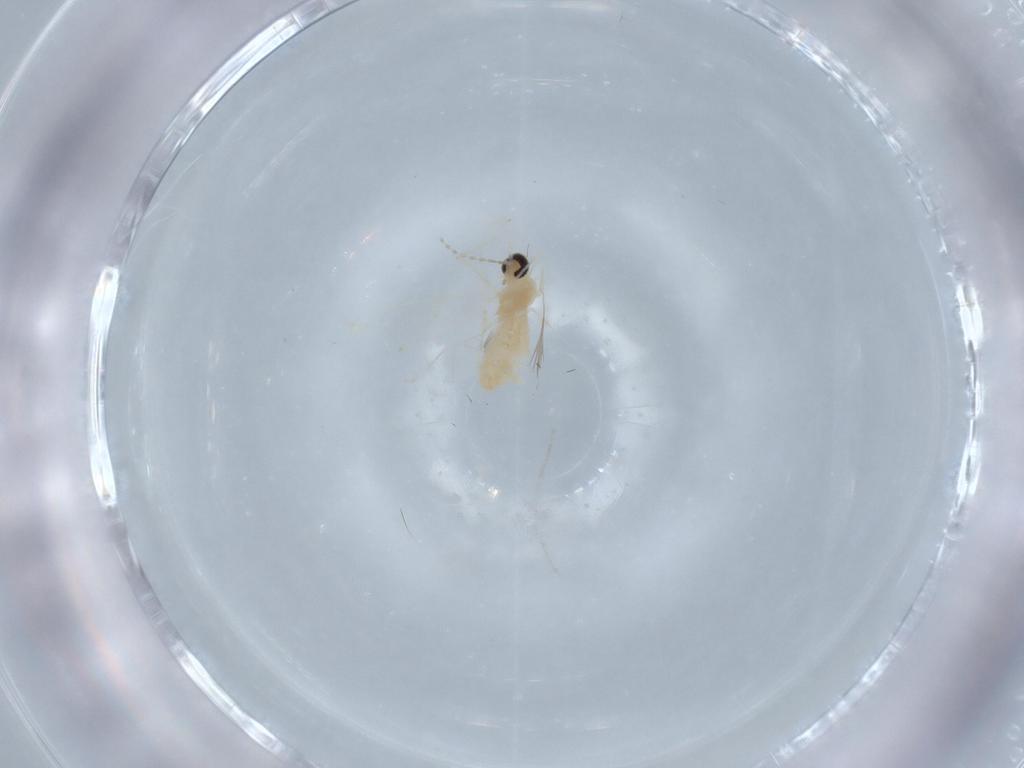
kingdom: Animalia
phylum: Arthropoda
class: Insecta
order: Diptera
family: Cecidomyiidae
